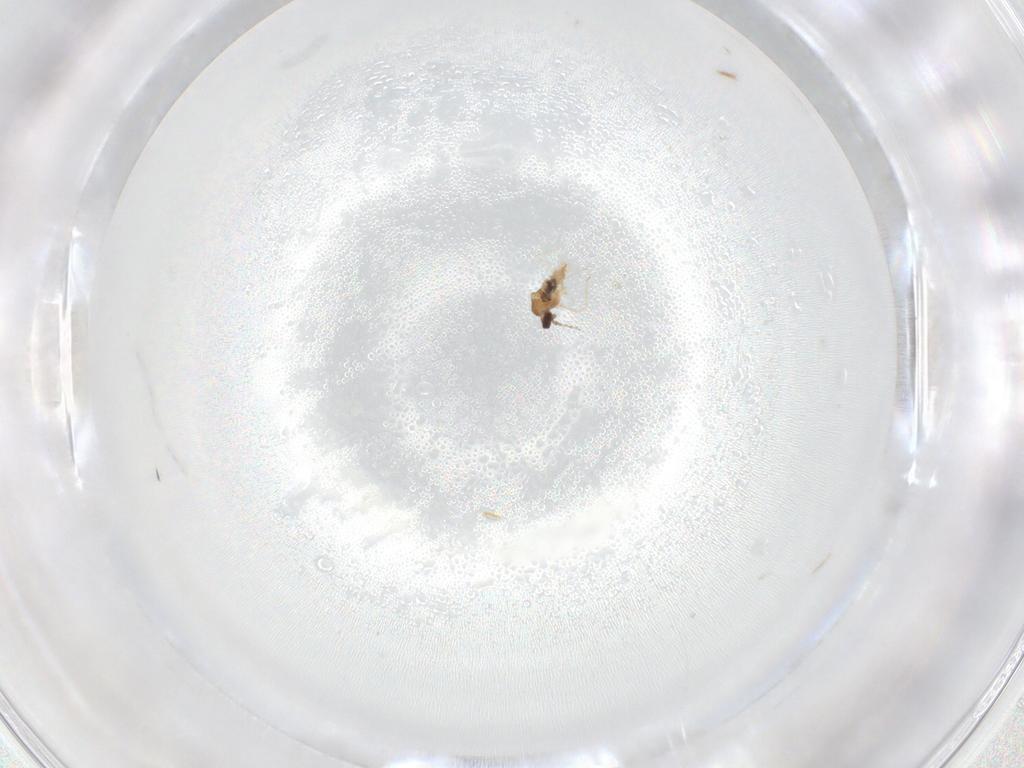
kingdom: Animalia
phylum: Arthropoda
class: Insecta
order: Diptera
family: Cecidomyiidae
